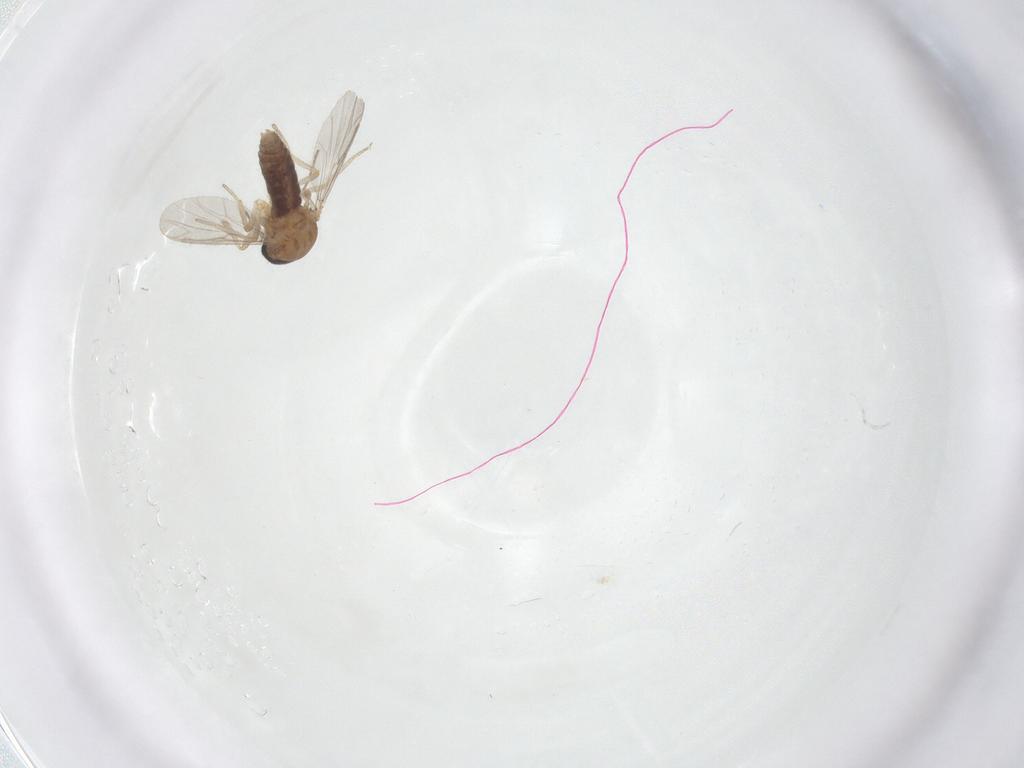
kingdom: Animalia
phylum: Arthropoda
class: Insecta
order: Diptera
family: Ceratopogonidae
